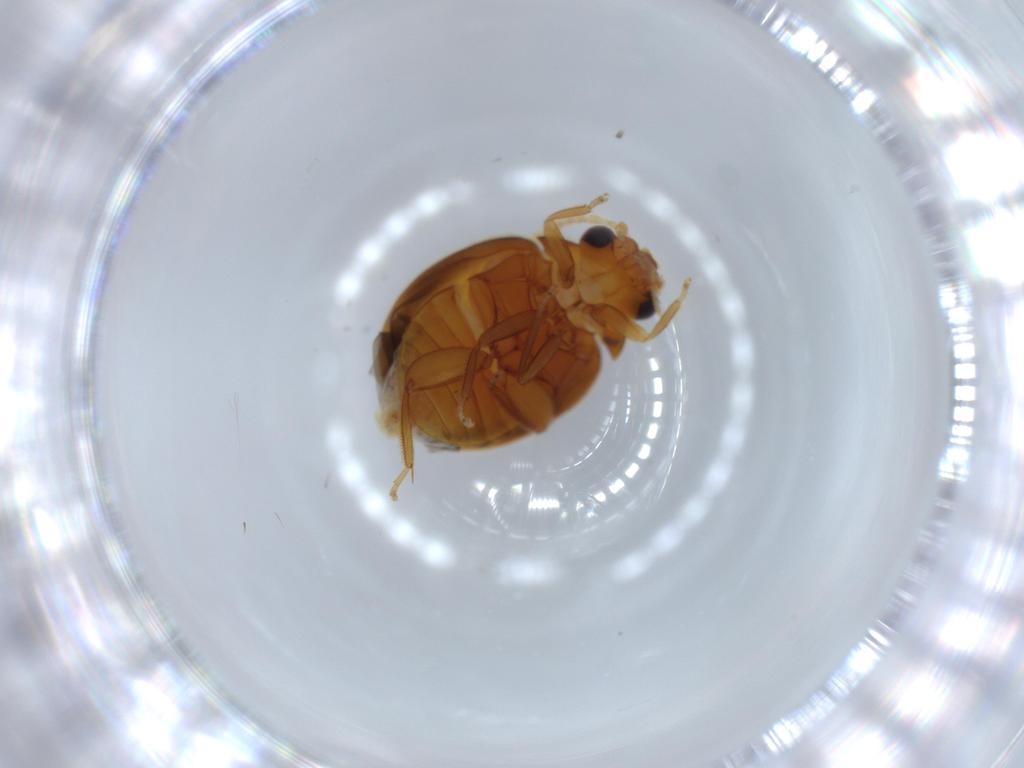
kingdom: Animalia
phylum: Arthropoda
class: Insecta
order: Coleoptera
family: Scirtidae
